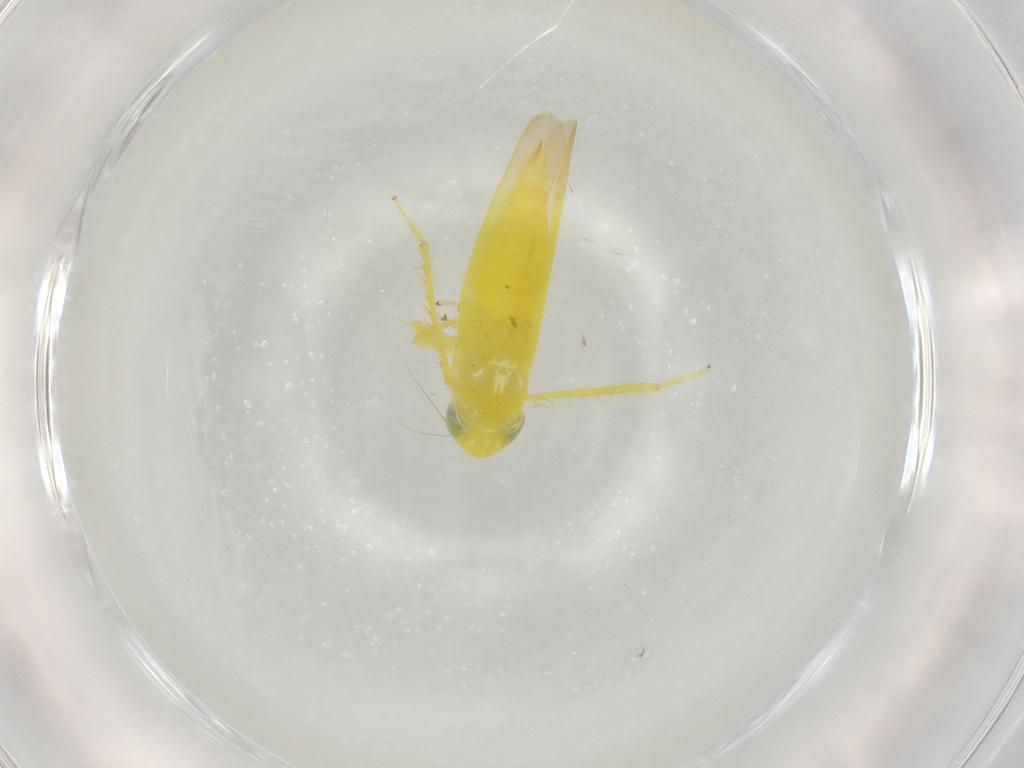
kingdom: Animalia
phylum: Arthropoda
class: Insecta
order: Hemiptera
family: Cicadellidae
